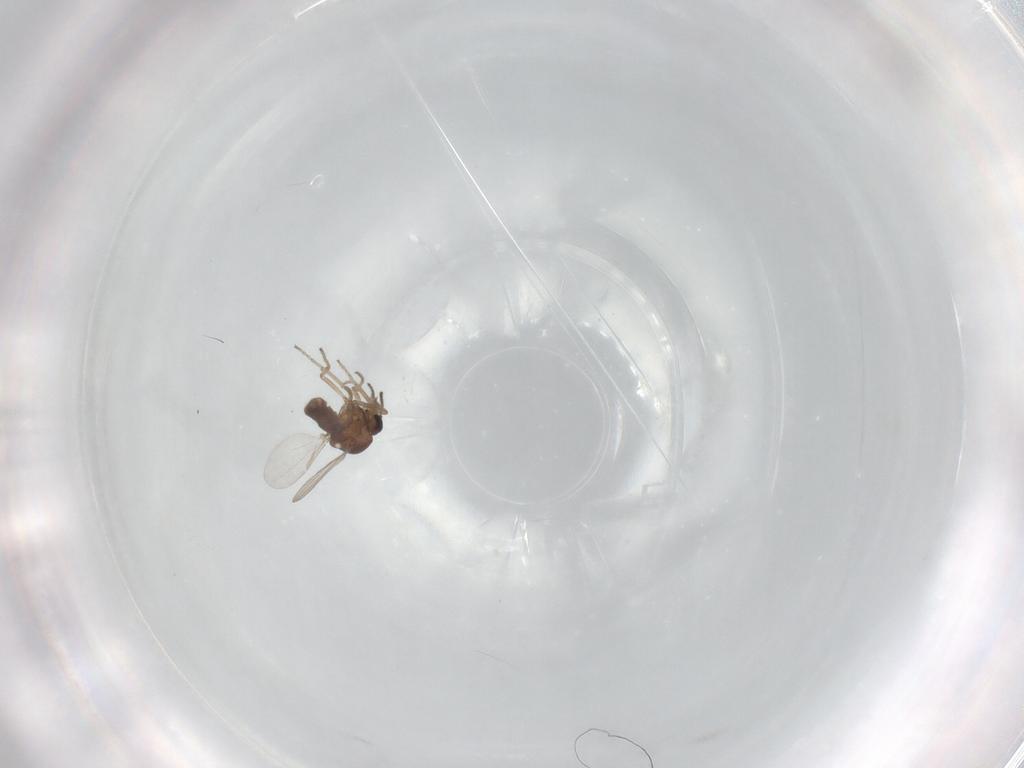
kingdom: Animalia
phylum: Arthropoda
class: Insecta
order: Diptera
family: Ceratopogonidae
